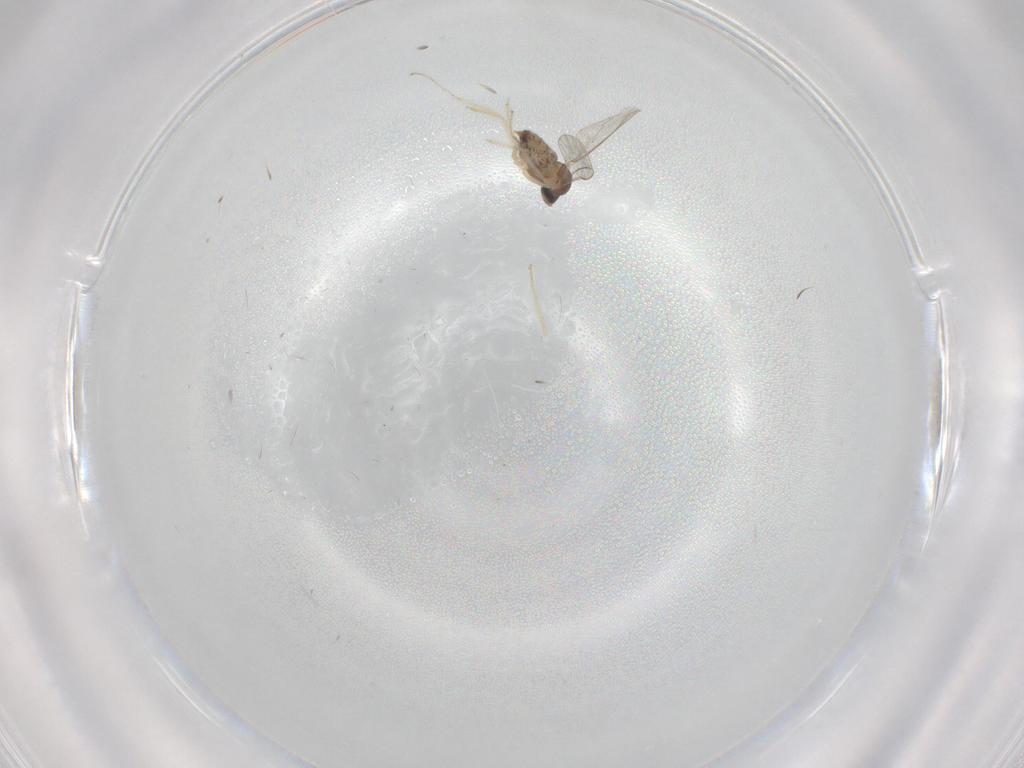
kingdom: Animalia
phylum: Arthropoda
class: Insecta
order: Diptera
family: Cecidomyiidae
